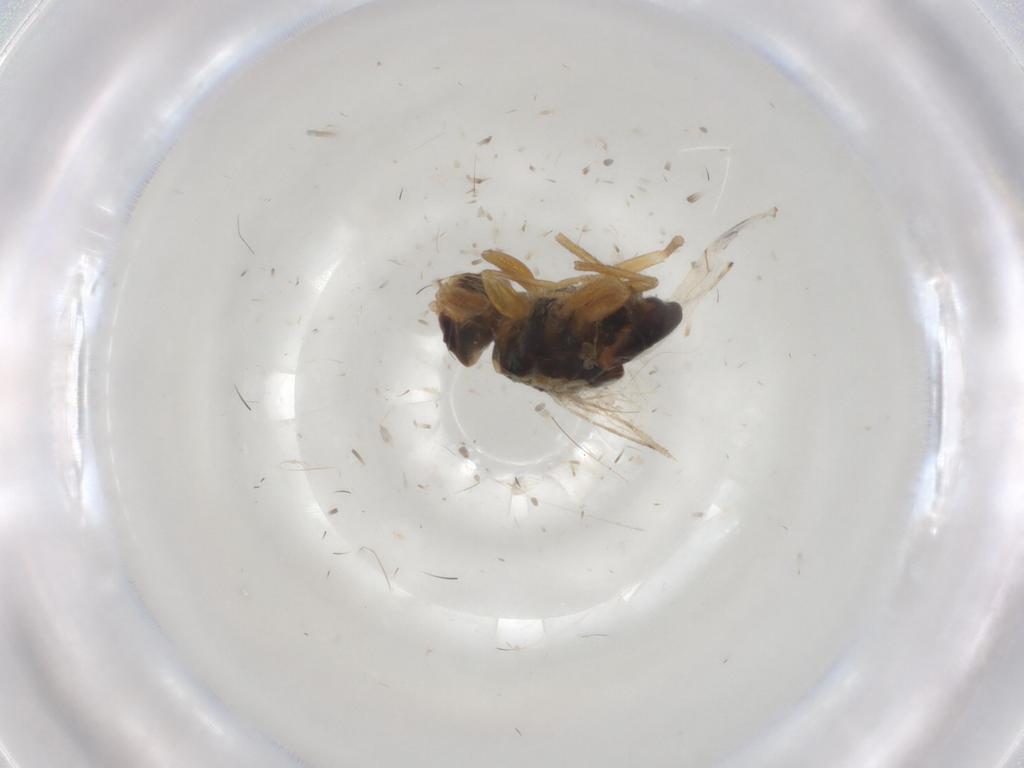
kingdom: Animalia
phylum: Arthropoda
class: Insecta
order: Diptera
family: Tephritidae
